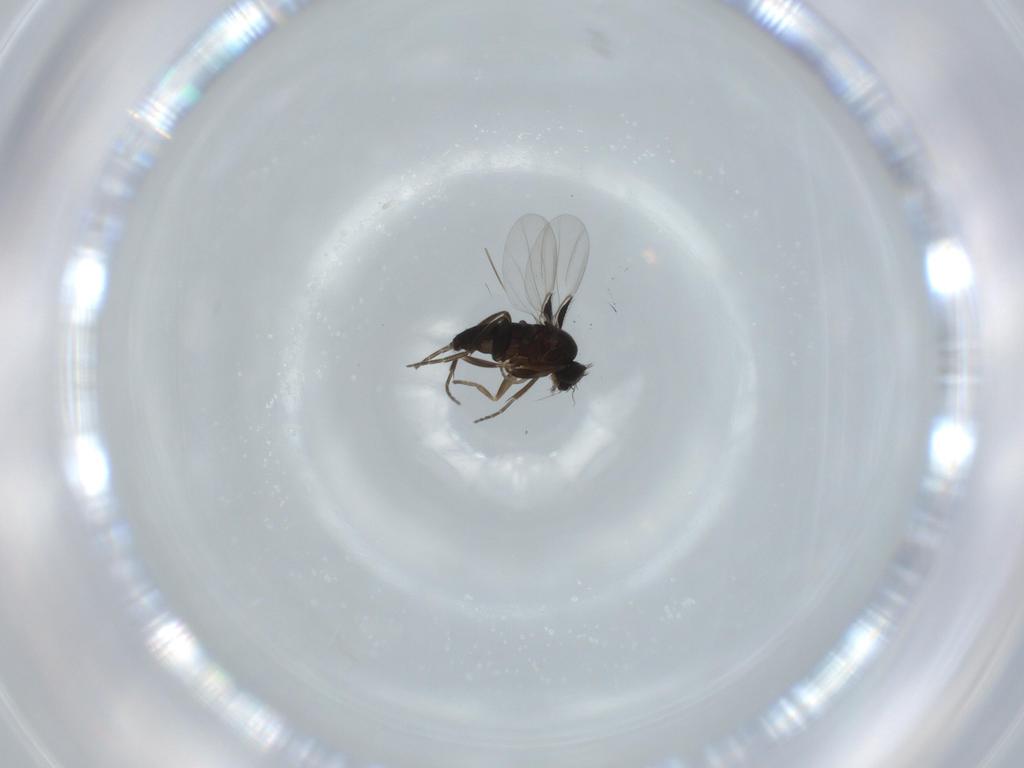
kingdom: Animalia
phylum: Arthropoda
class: Insecta
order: Diptera
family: Phoridae
